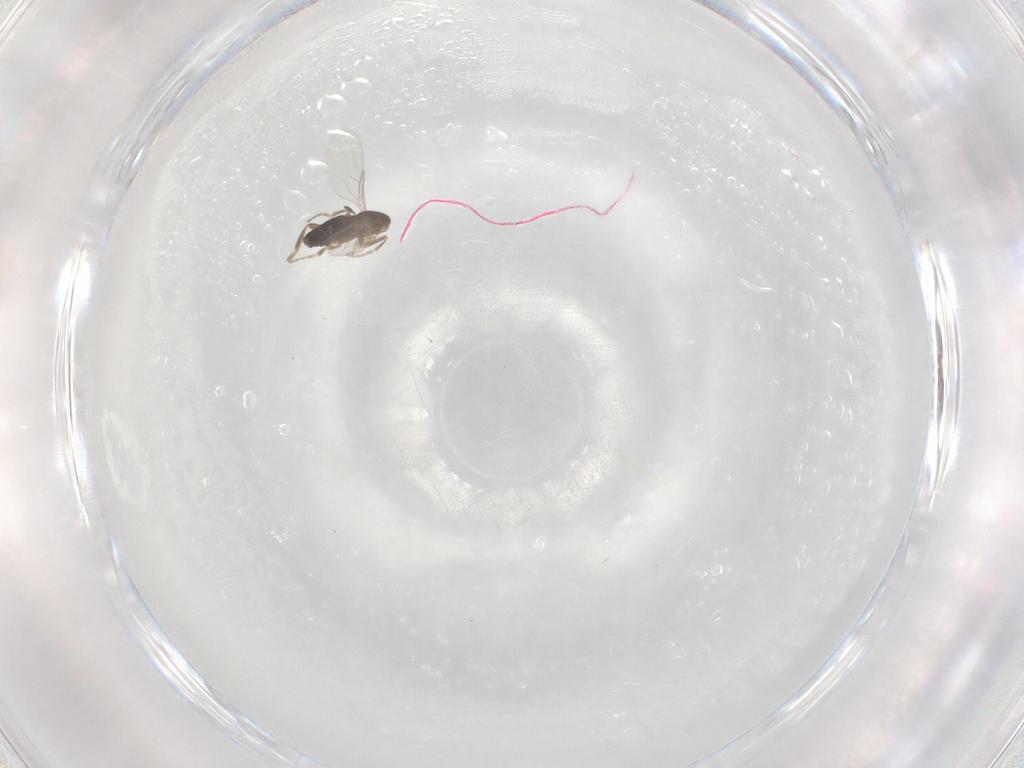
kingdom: Animalia
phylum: Arthropoda
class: Insecta
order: Diptera
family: Phoridae
